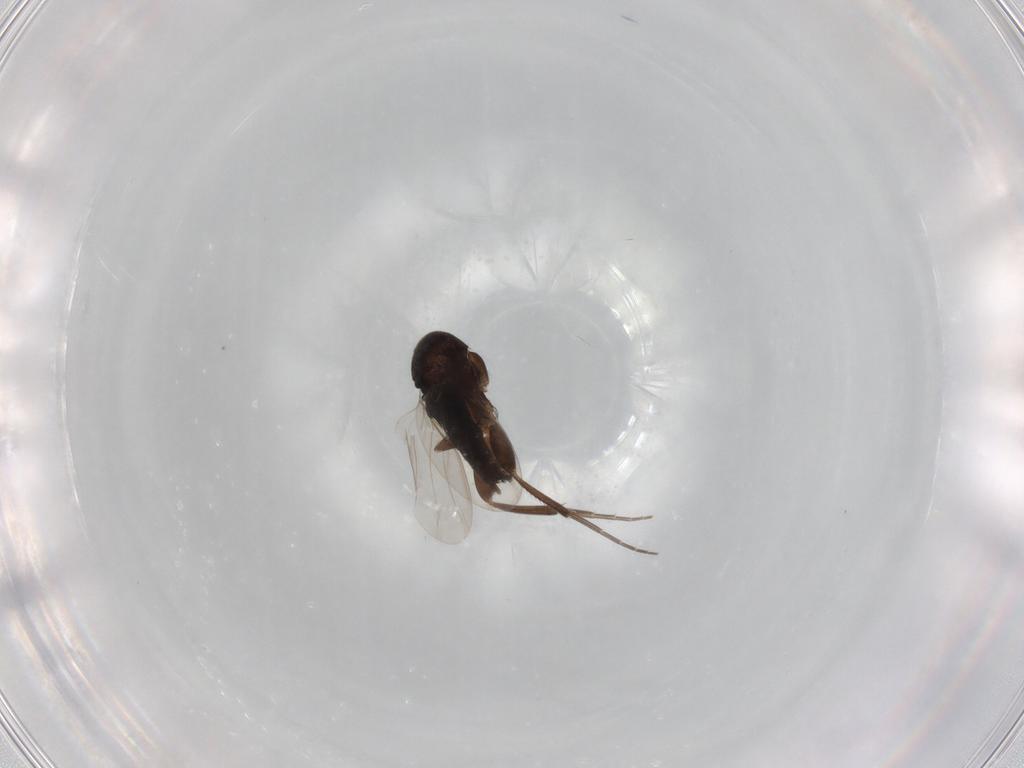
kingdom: Animalia
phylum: Arthropoda
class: Insecta
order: Diptera
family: Phoridae
